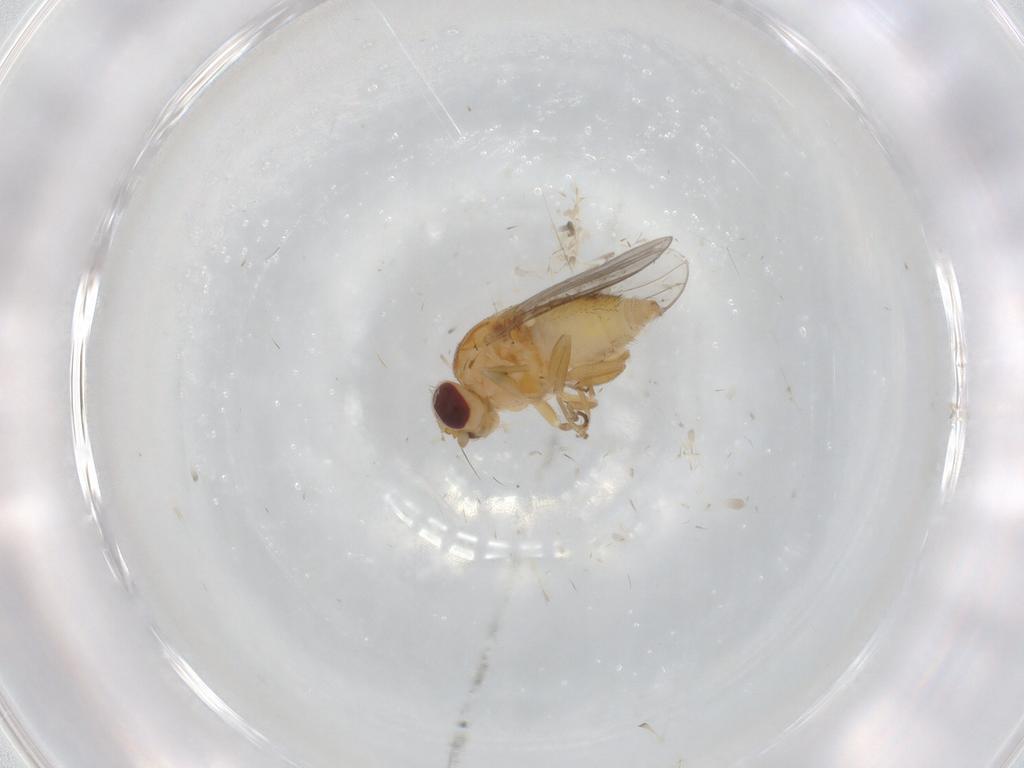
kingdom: Animalia
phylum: Arthropoda
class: Insecta
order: Diptera
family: Chloropidae
